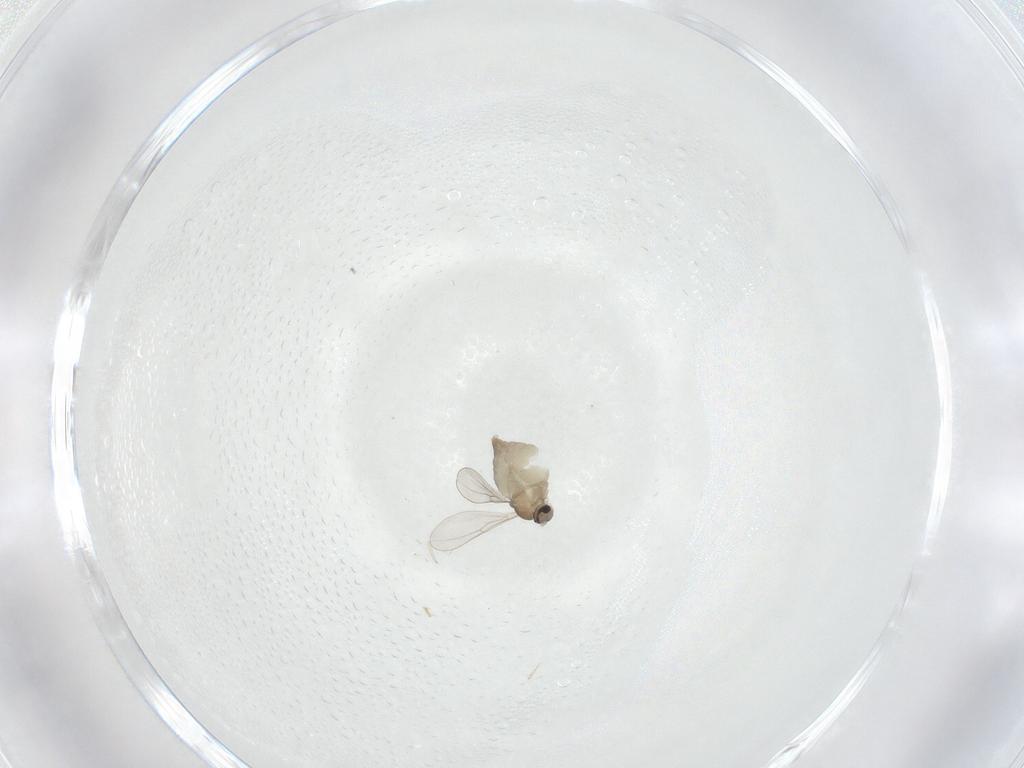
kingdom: Animalia
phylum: Arthropoda
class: Insecta
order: Diptera
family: Cecidomyiidae
